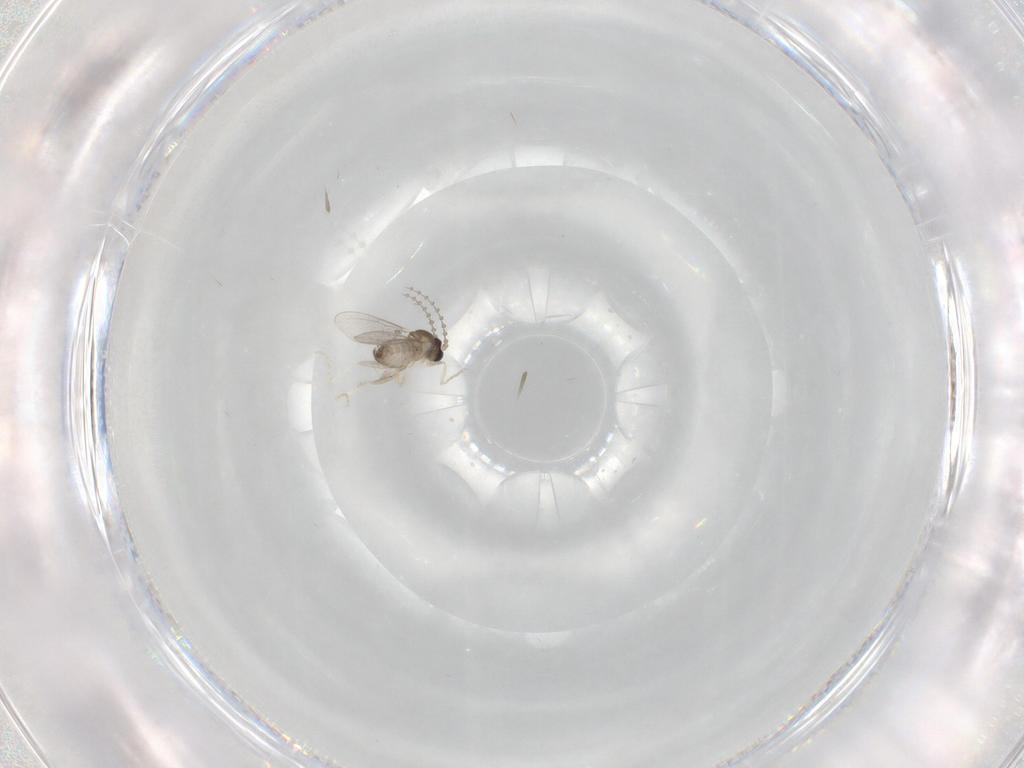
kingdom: Animalia
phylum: Arthropoda
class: Insecta
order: Diptera
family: Cecidomyiidae
